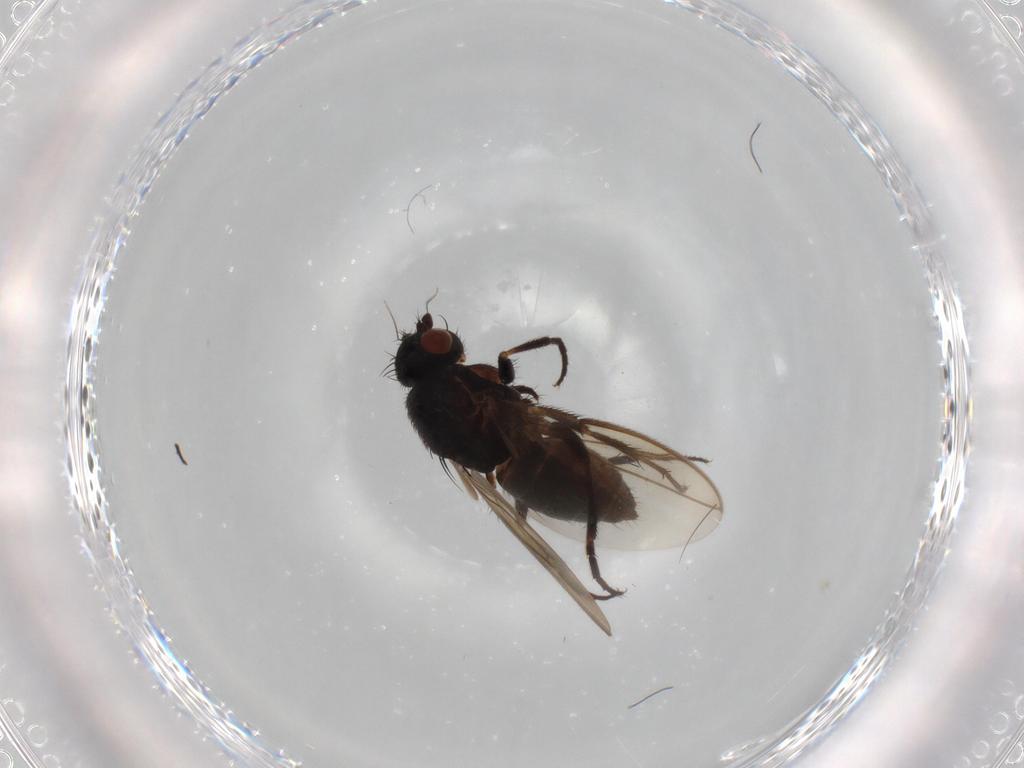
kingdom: Animalia
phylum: Arthropoda
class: Insecta
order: Diptera
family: Sphaeroceridae
